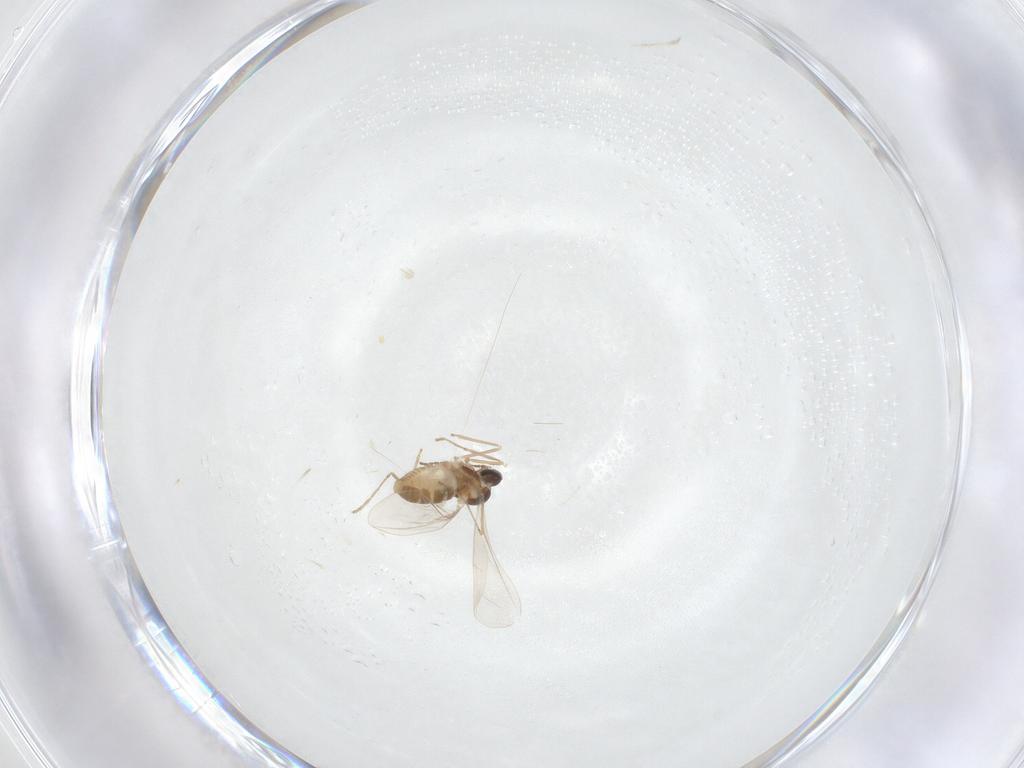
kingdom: Animalia
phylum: Arthropoda
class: Insecta
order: Diptera
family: Cecidomyiidae
